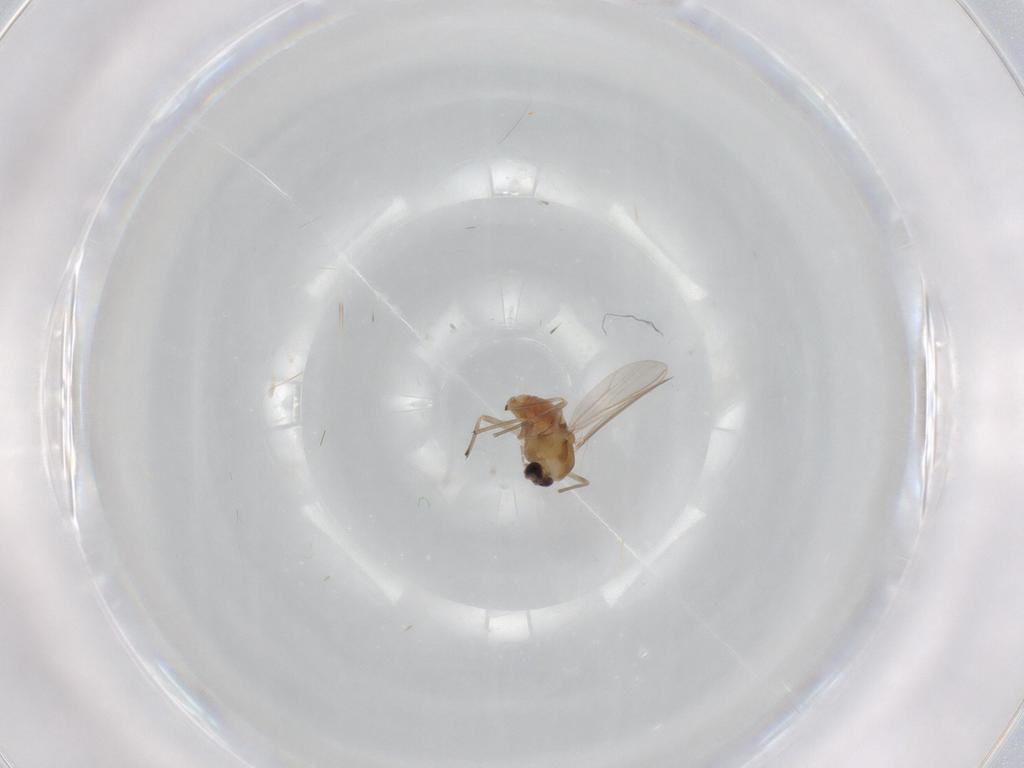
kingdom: Animalia
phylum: Arthropoda
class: Insecta
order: Diptera
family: Chironomidae
